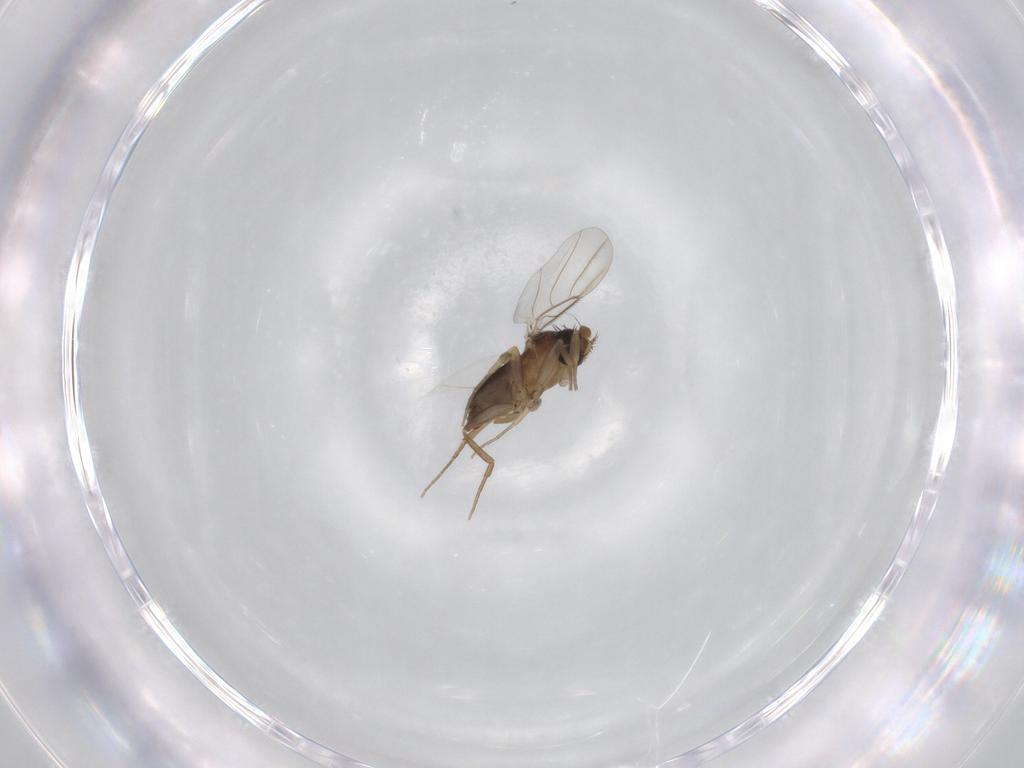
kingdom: Animalia
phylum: Arthropoda
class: Insecta
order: Diptera
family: Phoridae
